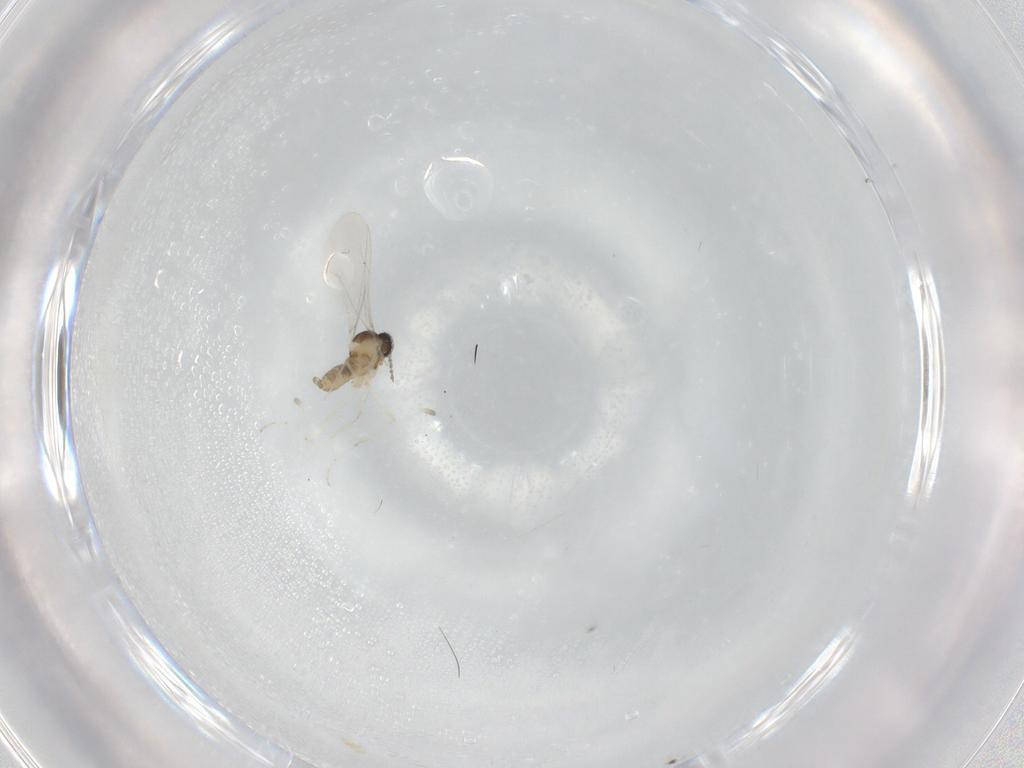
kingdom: Animalia
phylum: Arthropoda
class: Insecta
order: Diptera
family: Cecidomyiidae
